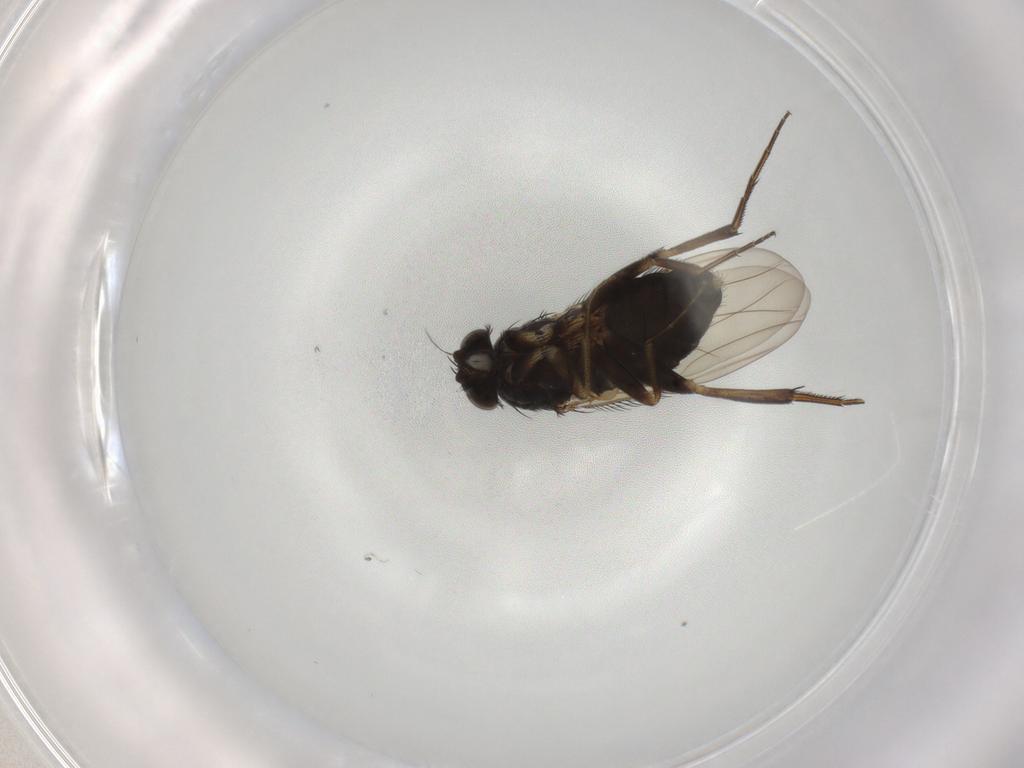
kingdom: Animalia
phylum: Arthropoda
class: Insecta
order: Diptera
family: Phoridae
